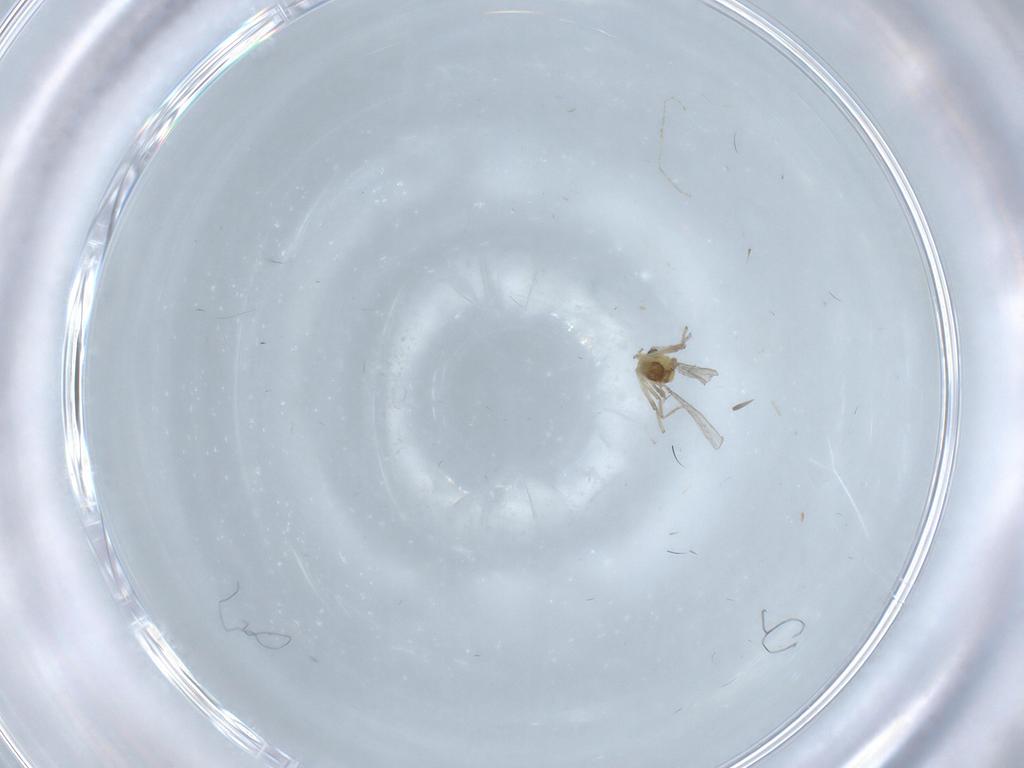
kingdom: Animalia
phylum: Arthropoda
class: Insecta
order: Diptera
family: Chironomidae
